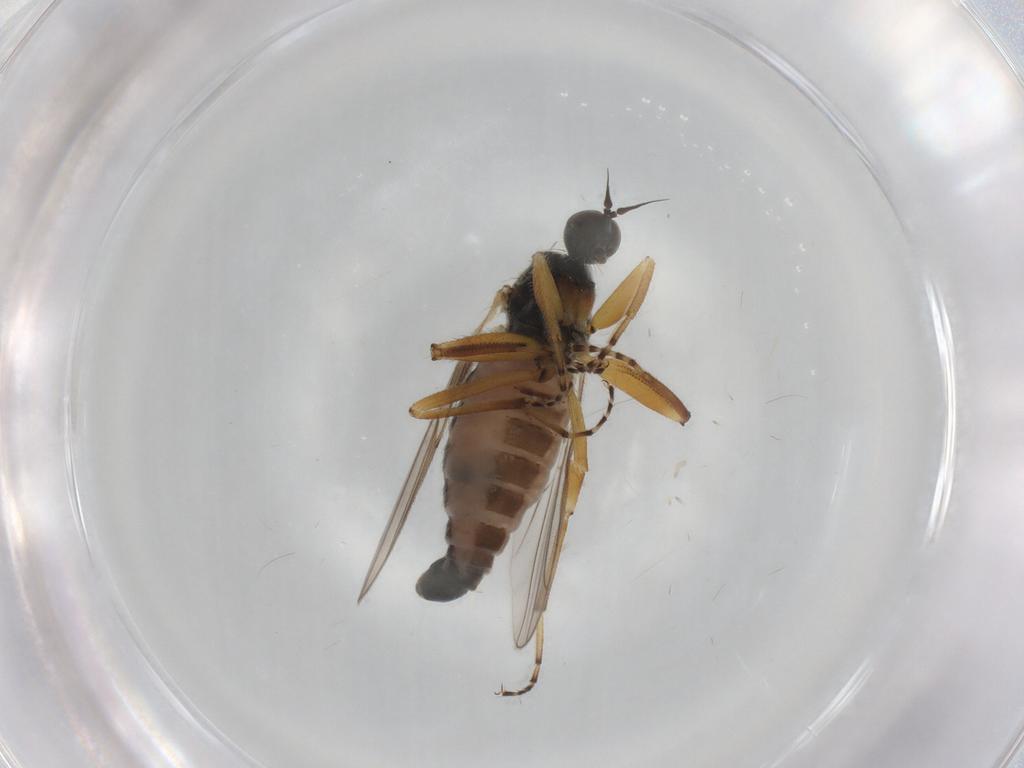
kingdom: Animalia
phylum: Arthropoda
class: Insecta
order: Diptera
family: Hybotidae
